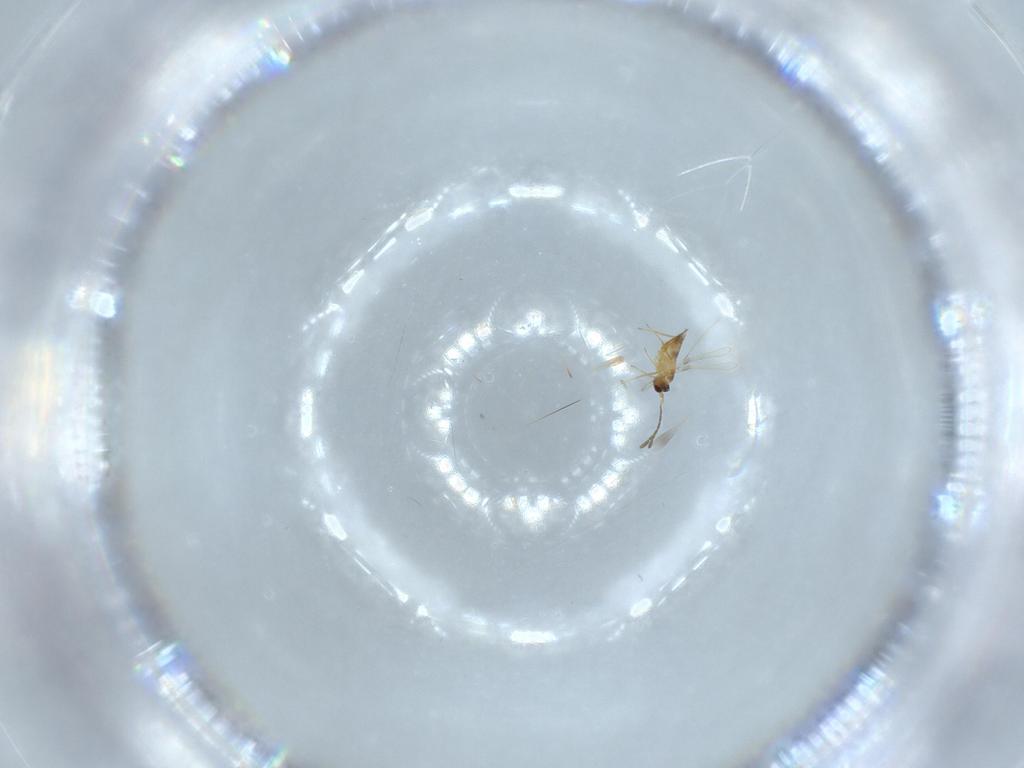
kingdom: Animalia
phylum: Arthropoda
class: Insecta
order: Hymenoptera
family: Mymaridae
